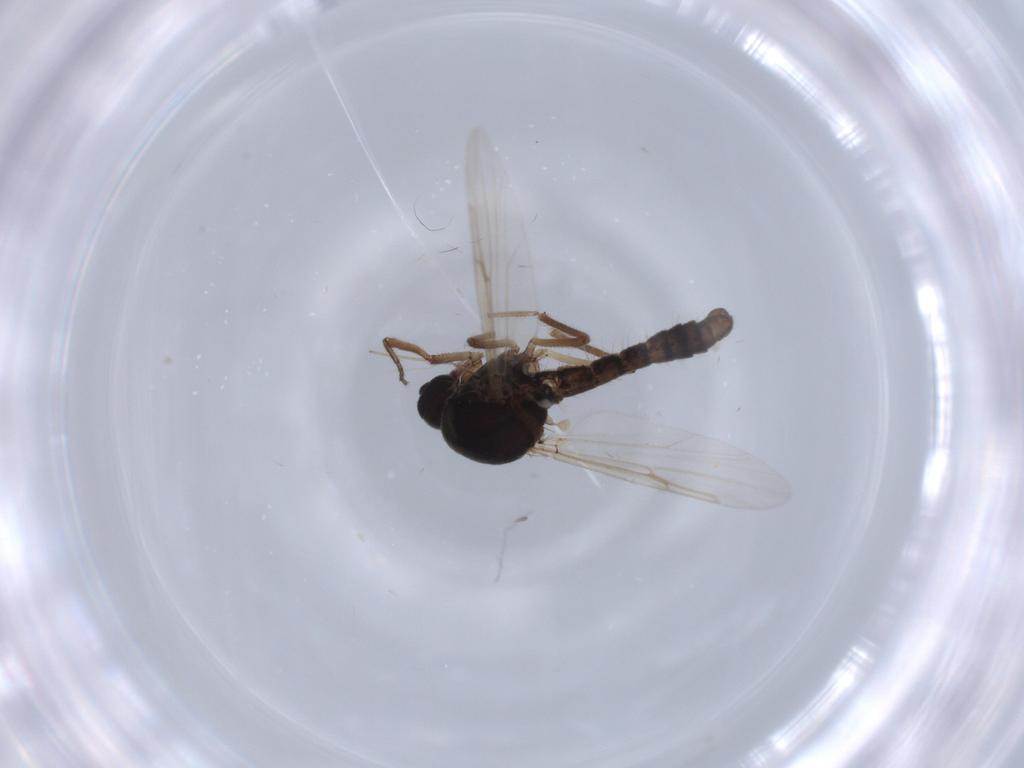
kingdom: Animalia
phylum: Arthropoda
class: Insecta
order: Diptera
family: Ceratopogonidae
